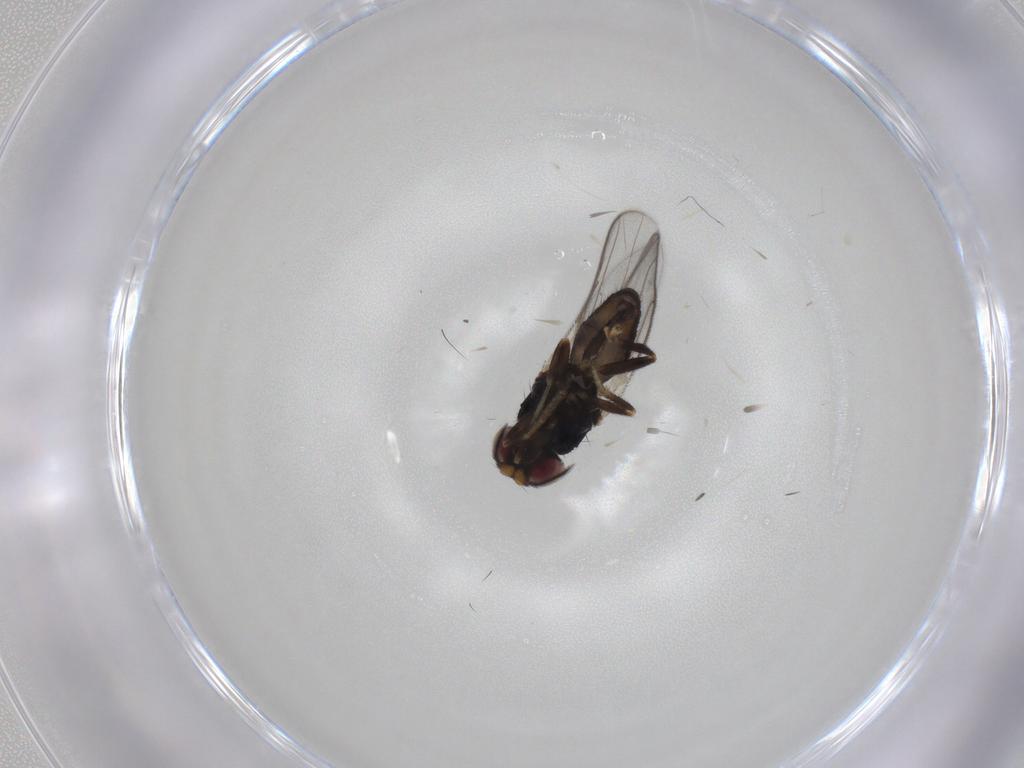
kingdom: Animalia
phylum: Arthropoda
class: Insecta
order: Diptera
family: Chloropidae
